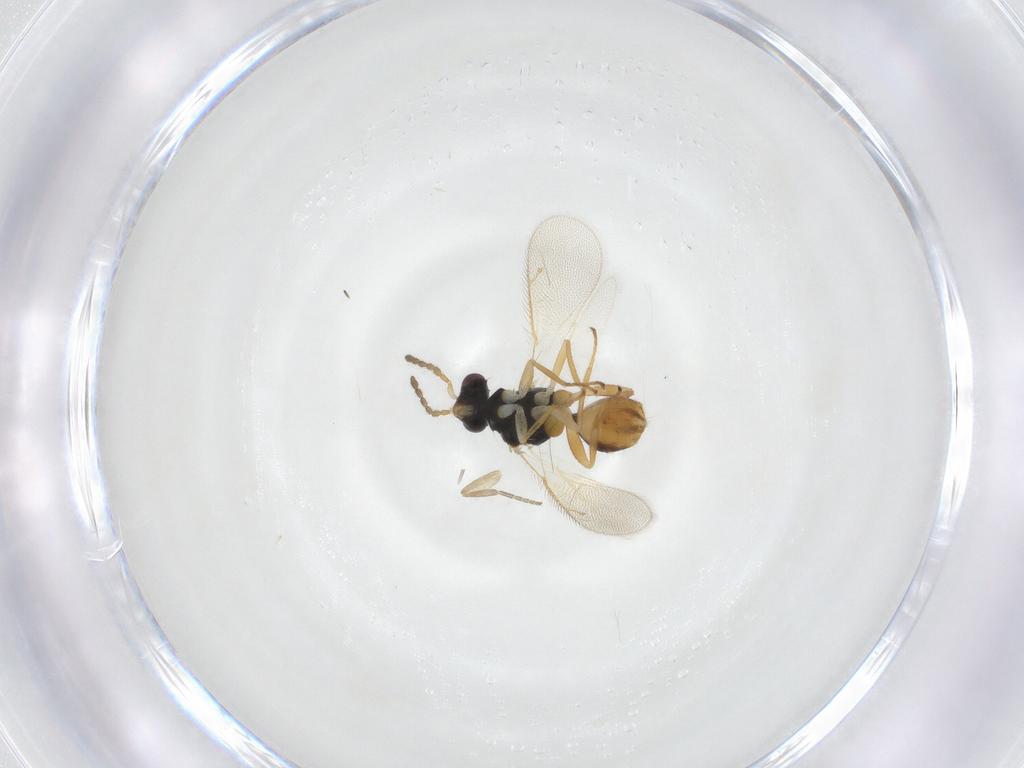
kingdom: Animalia
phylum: Arthropoda
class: Insecta
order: Hymenoptera
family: Eulophidae
